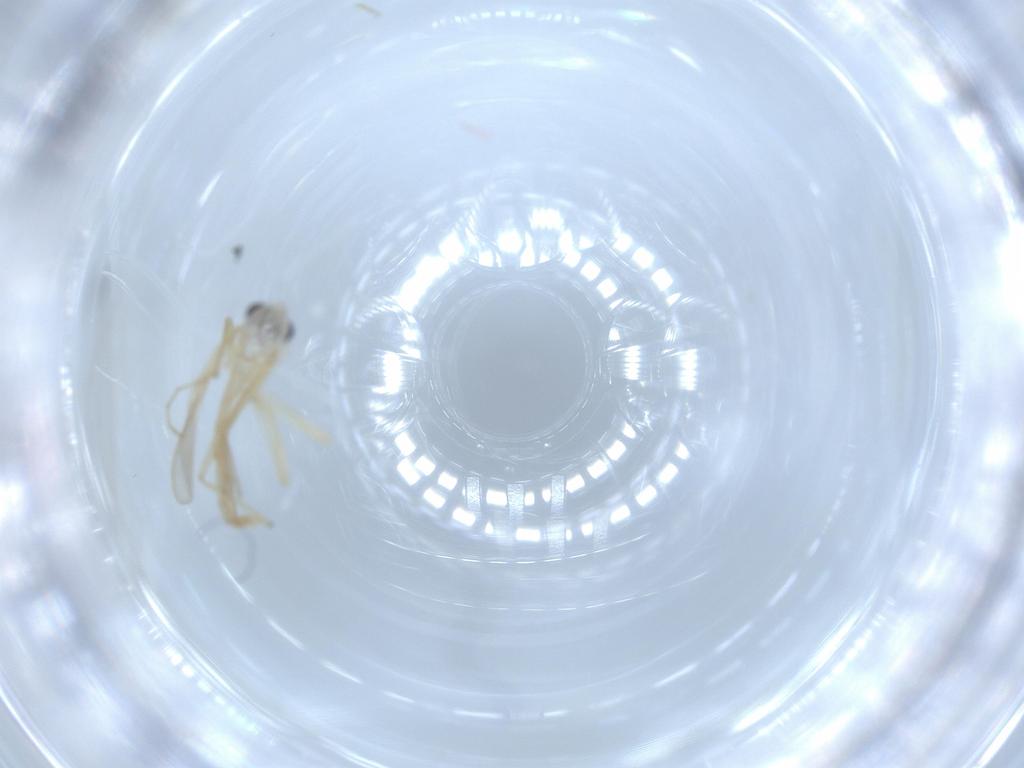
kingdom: Animalia
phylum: Arthropoda
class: Insecta
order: Diptera
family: Chironomidae
